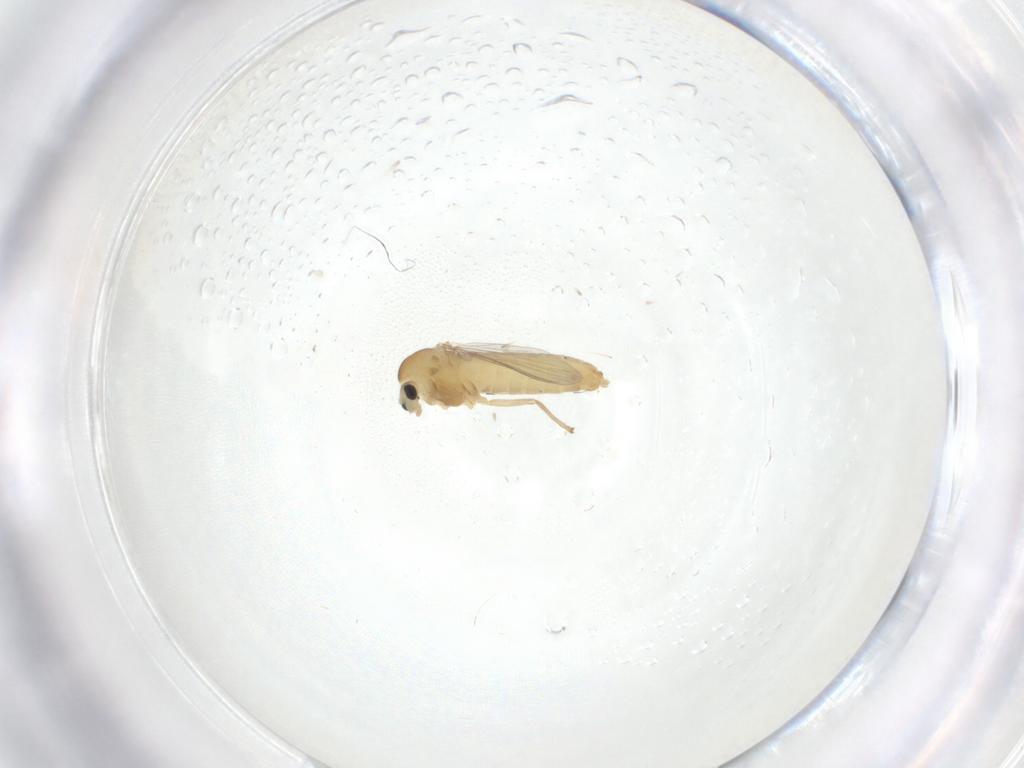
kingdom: Animalia
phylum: Arthropoda
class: Insecta
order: Diptera
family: Chironomidae
